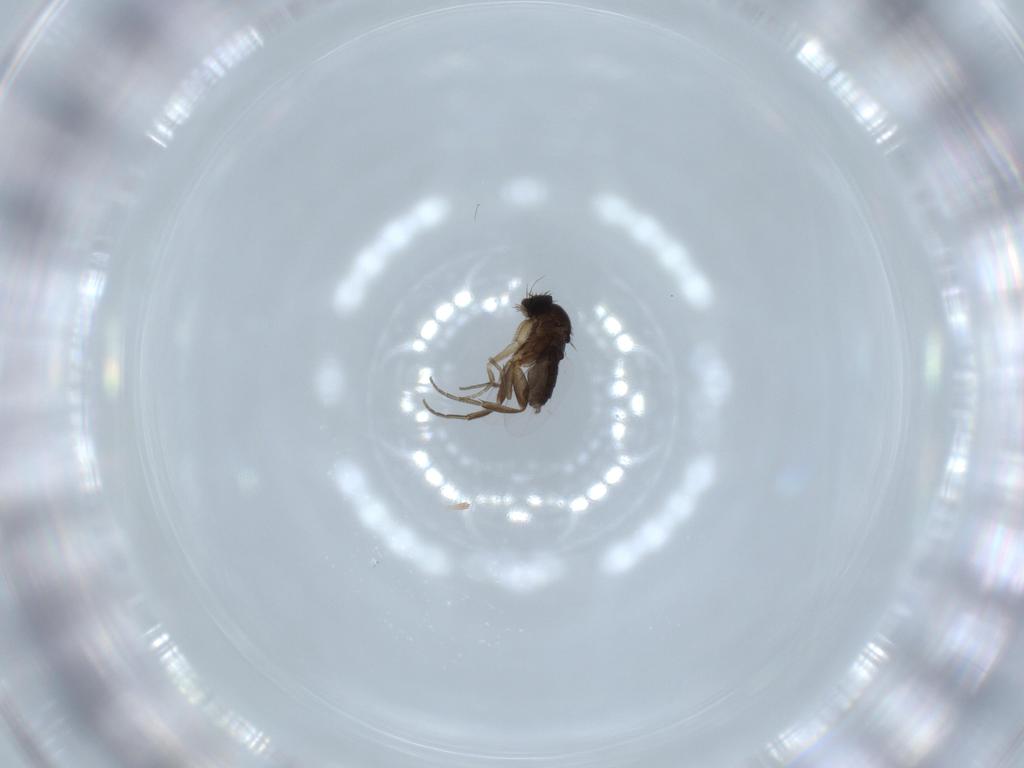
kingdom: Animalia
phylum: Arthropoda
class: Insecta
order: Diptera
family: Phoridae
